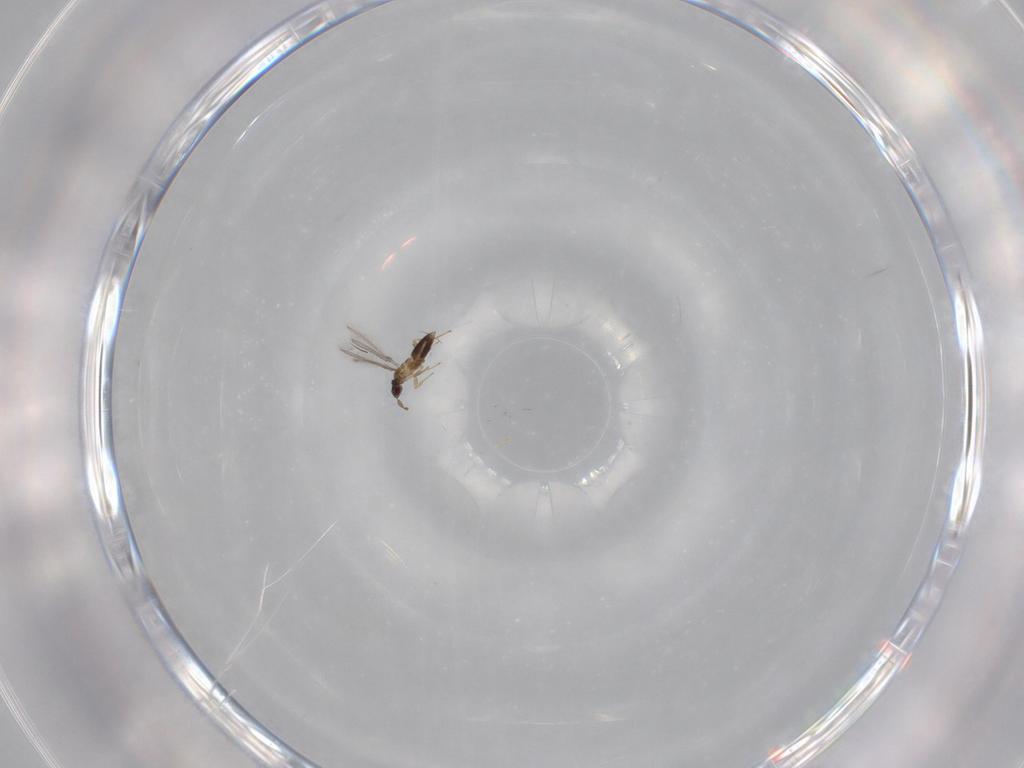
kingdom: Animalia
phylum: Arthropoda
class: Insecta
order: Hymenoptera
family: Mymaridae
